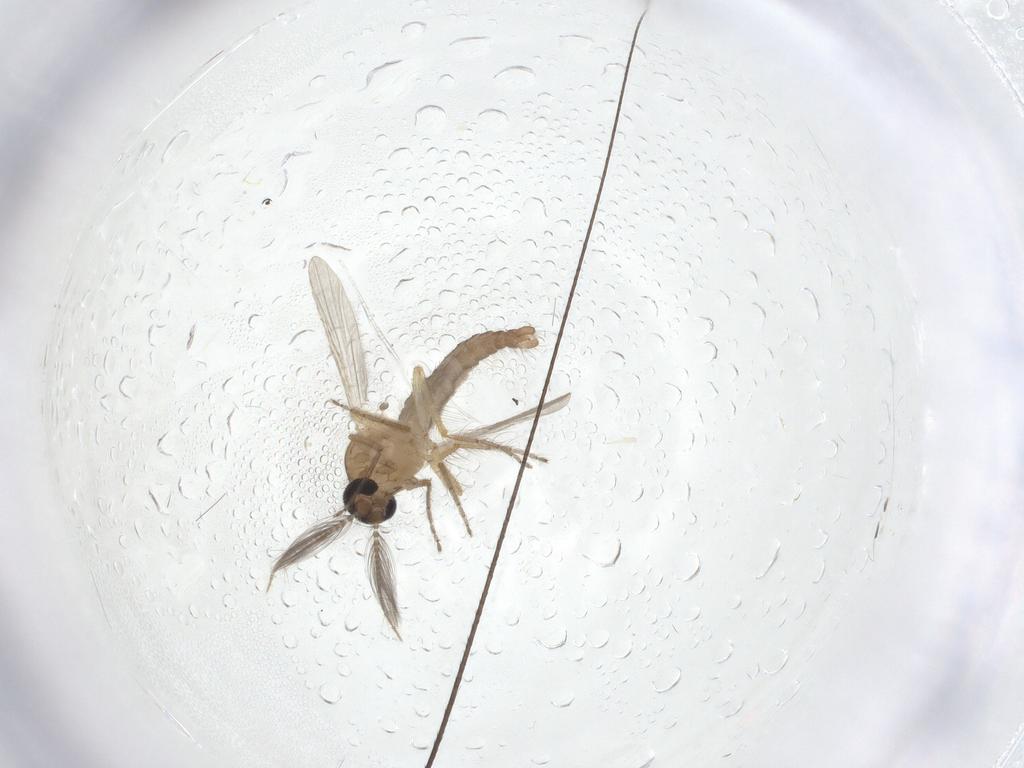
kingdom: Animalia
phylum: Arthropoda
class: Insecta
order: Diptera
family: Ceratopogonidae
